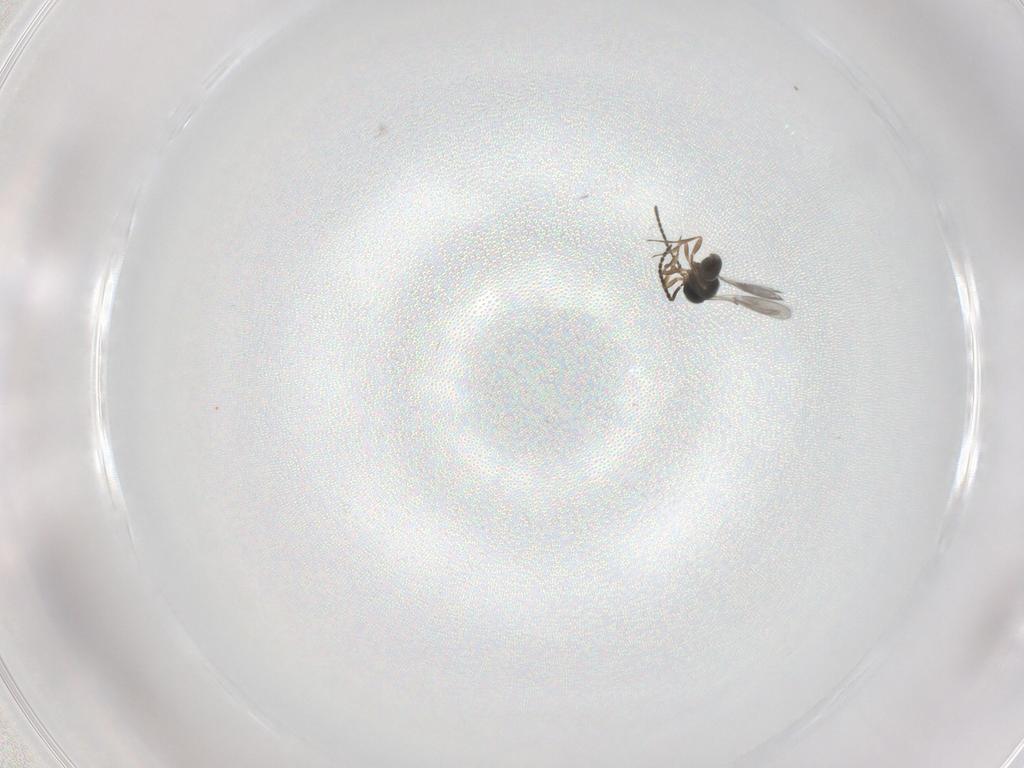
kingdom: Animalia
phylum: Arthropoda
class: Insecta
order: Hymenoptera
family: Scelionidae
